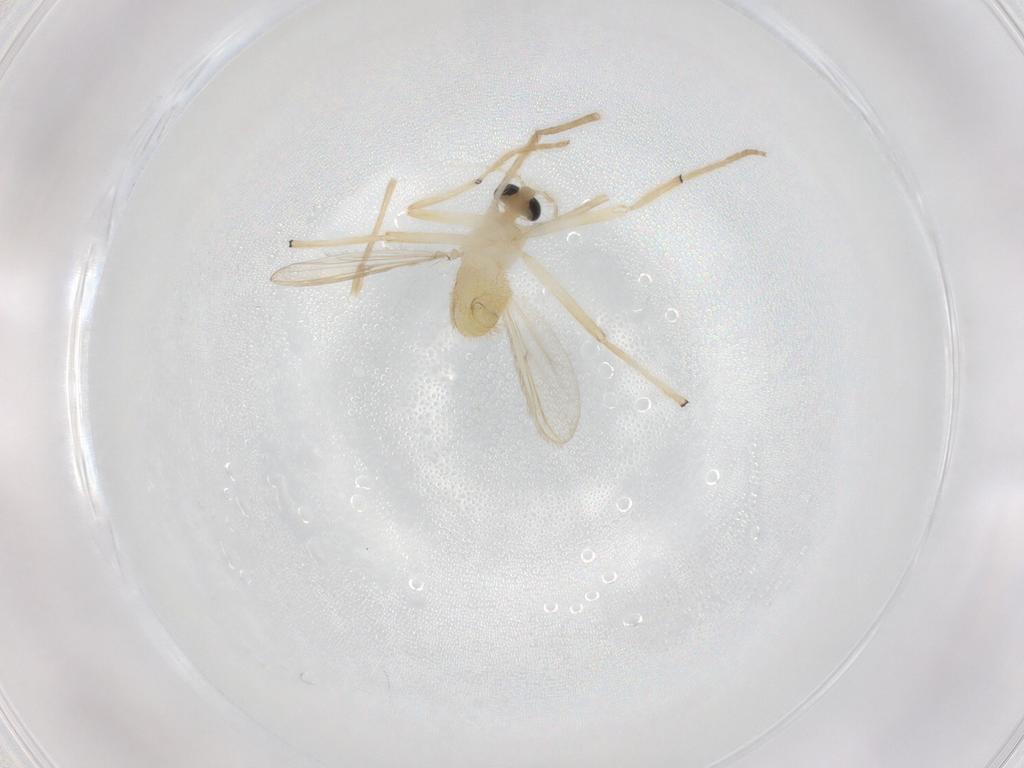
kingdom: Animalia
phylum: Arthropoda
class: Insecta
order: Diptera
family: Chironomidae
